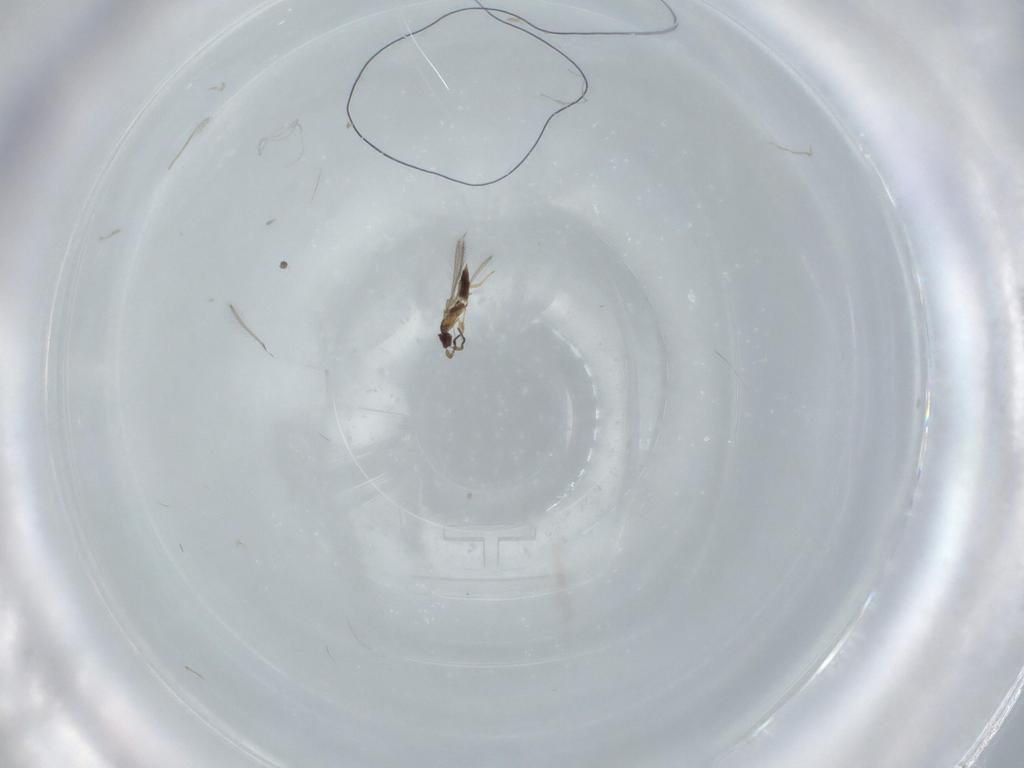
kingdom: Animalia
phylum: Arthropoda
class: Insecta
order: Hymenoptera
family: Mymaridae
